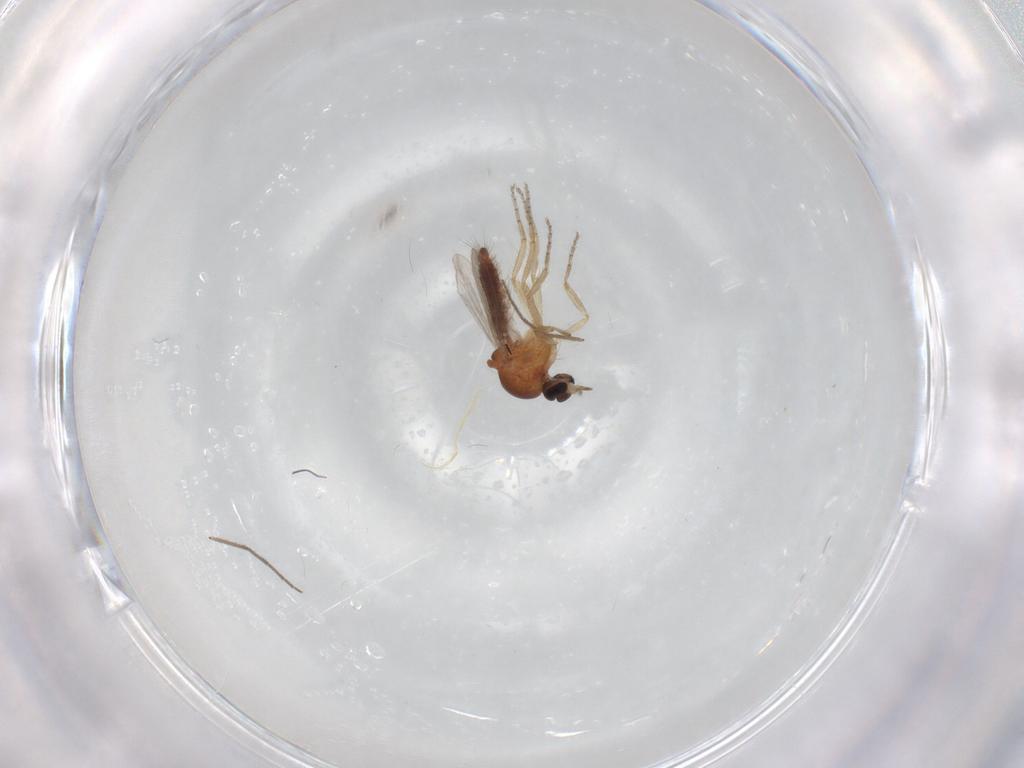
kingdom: Animalia
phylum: Arthropoda
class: Insecta
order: Diptera
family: Ceratopogonidae
